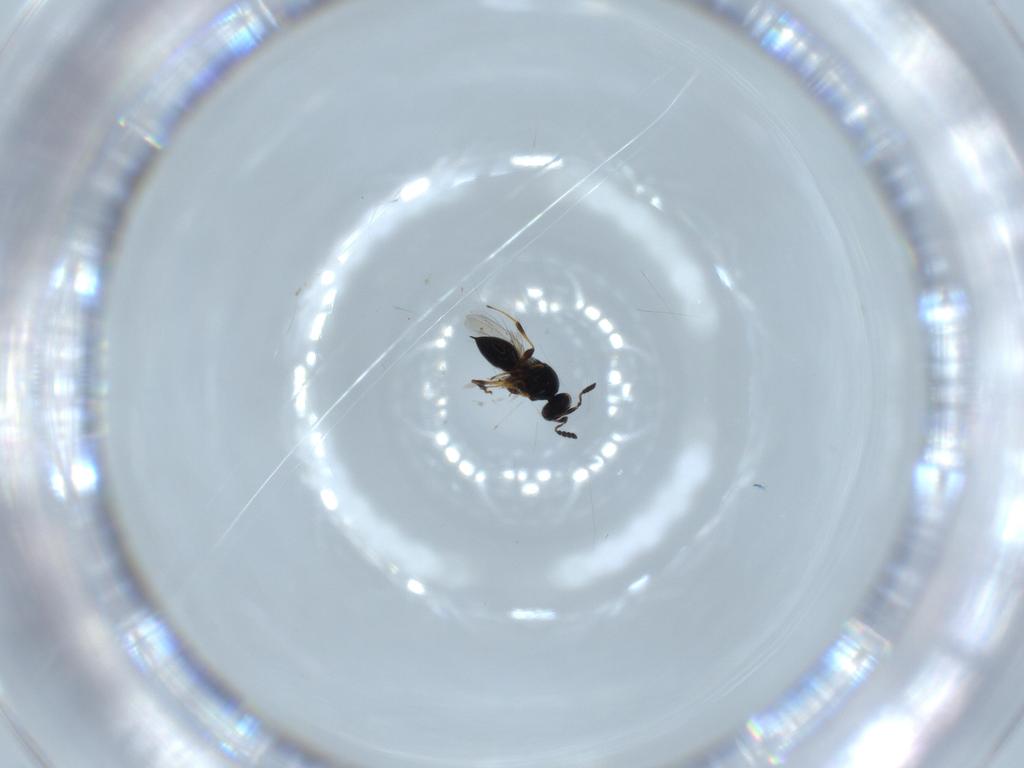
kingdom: Animalia
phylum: Arthropoda
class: Insecta
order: Hymenoptera
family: Platygastridae
